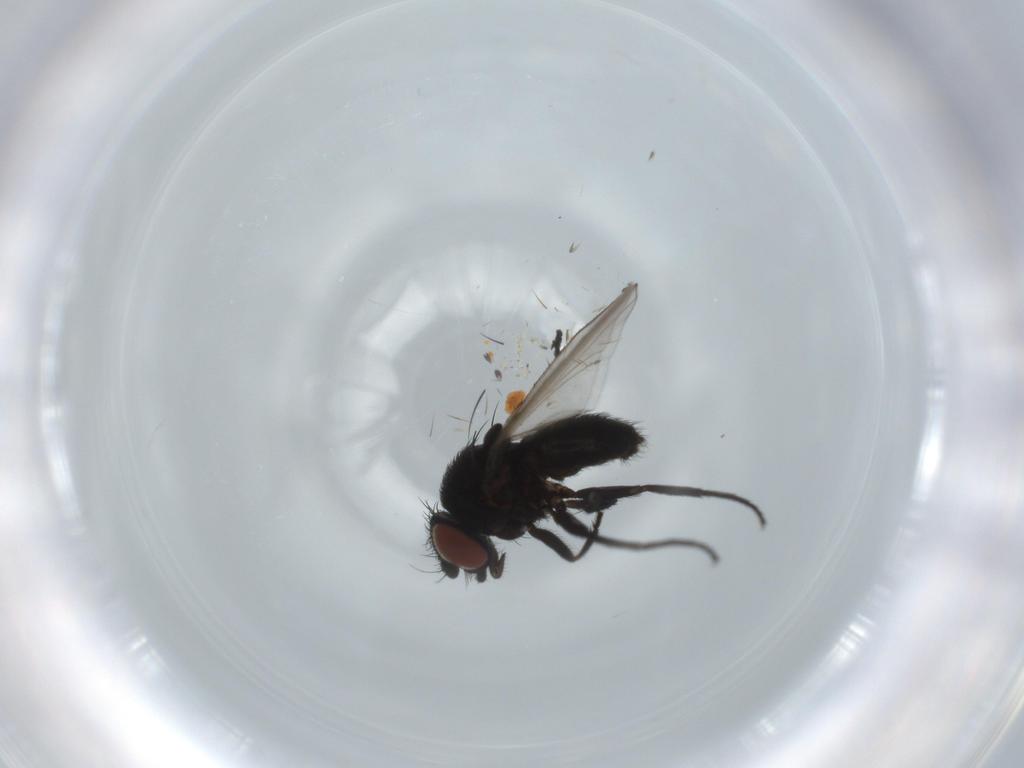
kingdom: Animalia
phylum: Arthropoda
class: Insecta
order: Diptera
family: Milichiidae
